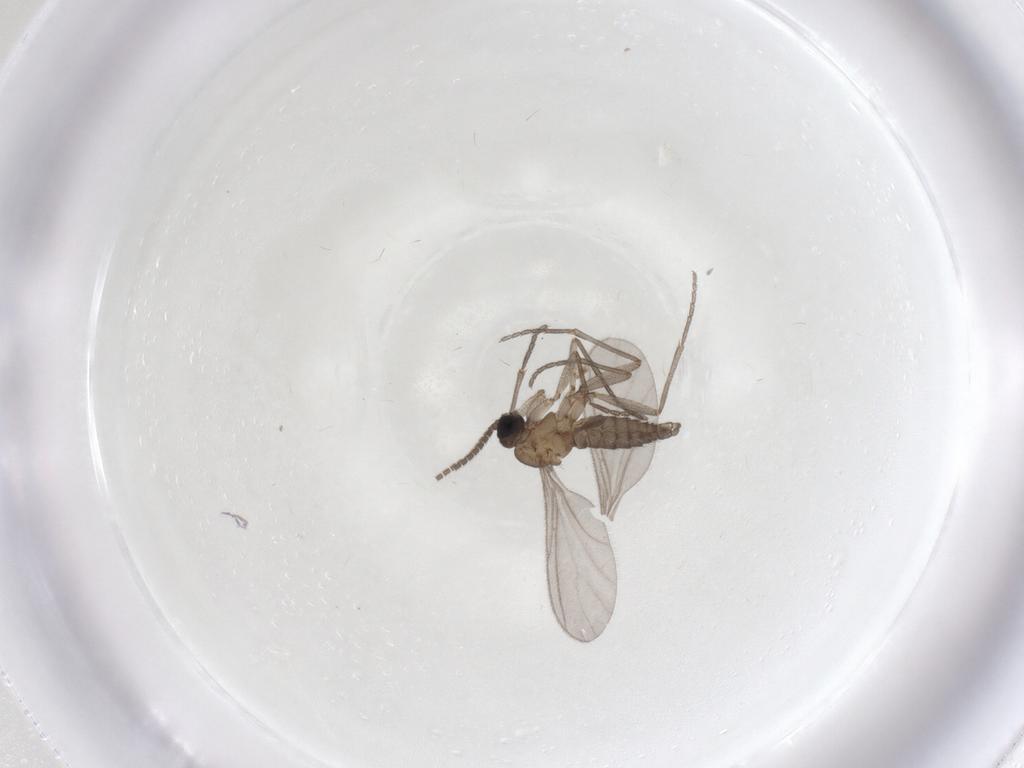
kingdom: Animalia
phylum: Arthropoda
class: Insecta
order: Diptera
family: Sciaridae
